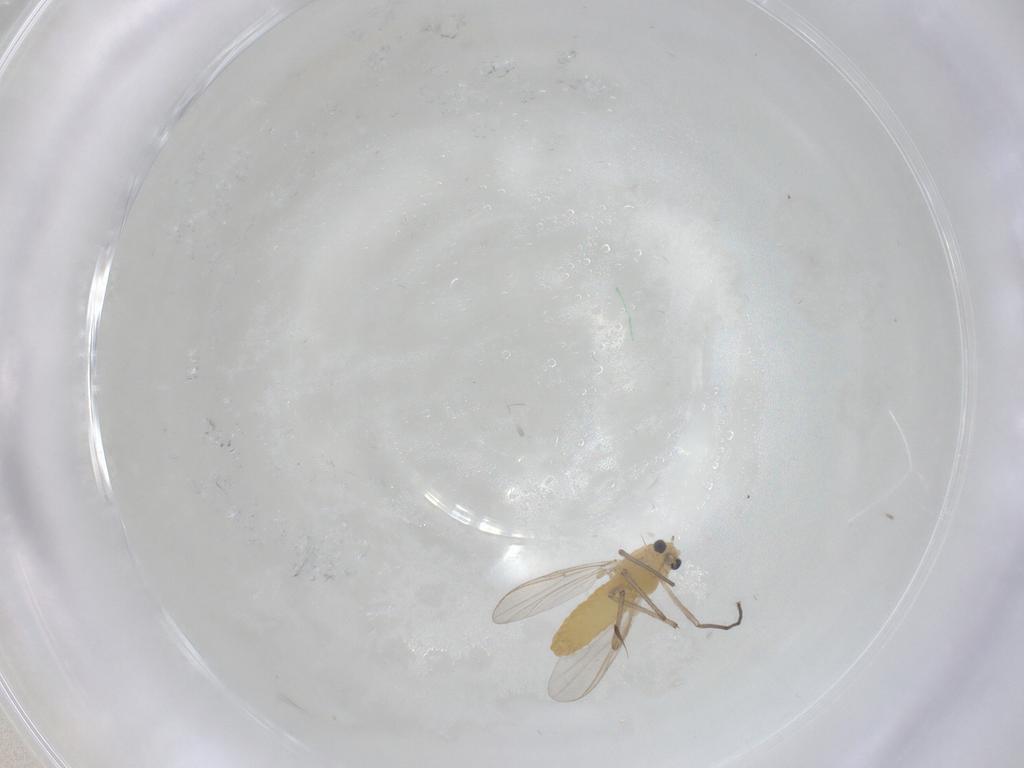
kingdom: Animalia
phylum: Arthropoda
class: Insecta
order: Diptera
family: Chironomidae
